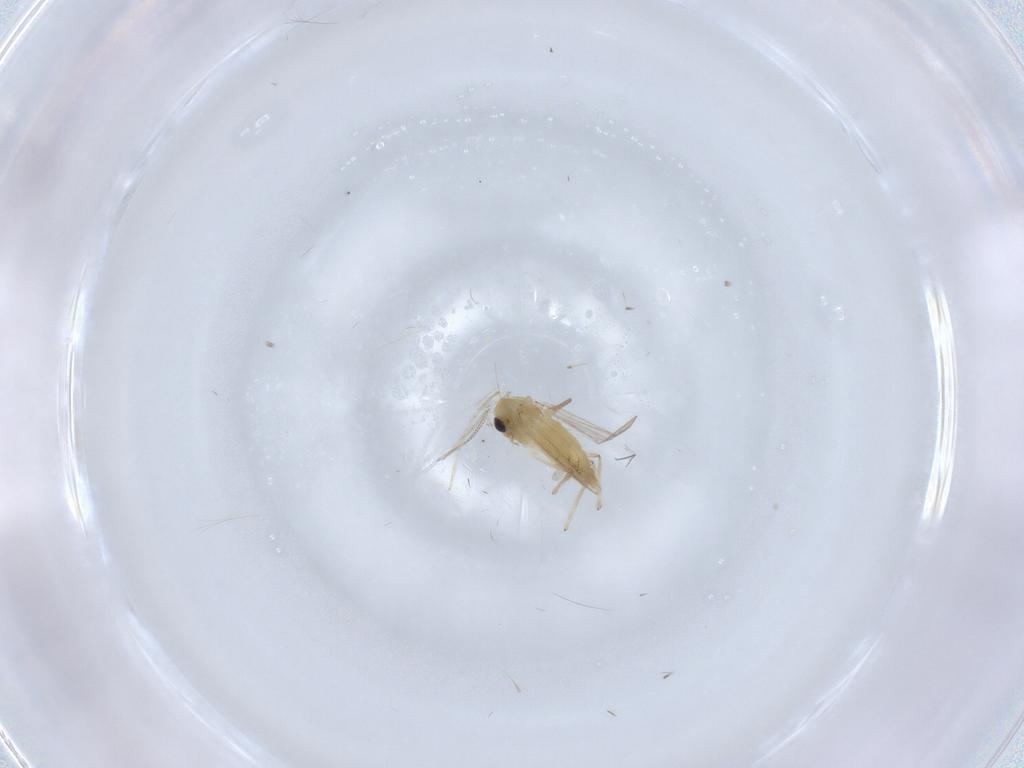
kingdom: Animalia
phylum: Arthropoda
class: Insecta
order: Diptera
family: Chironomidae
